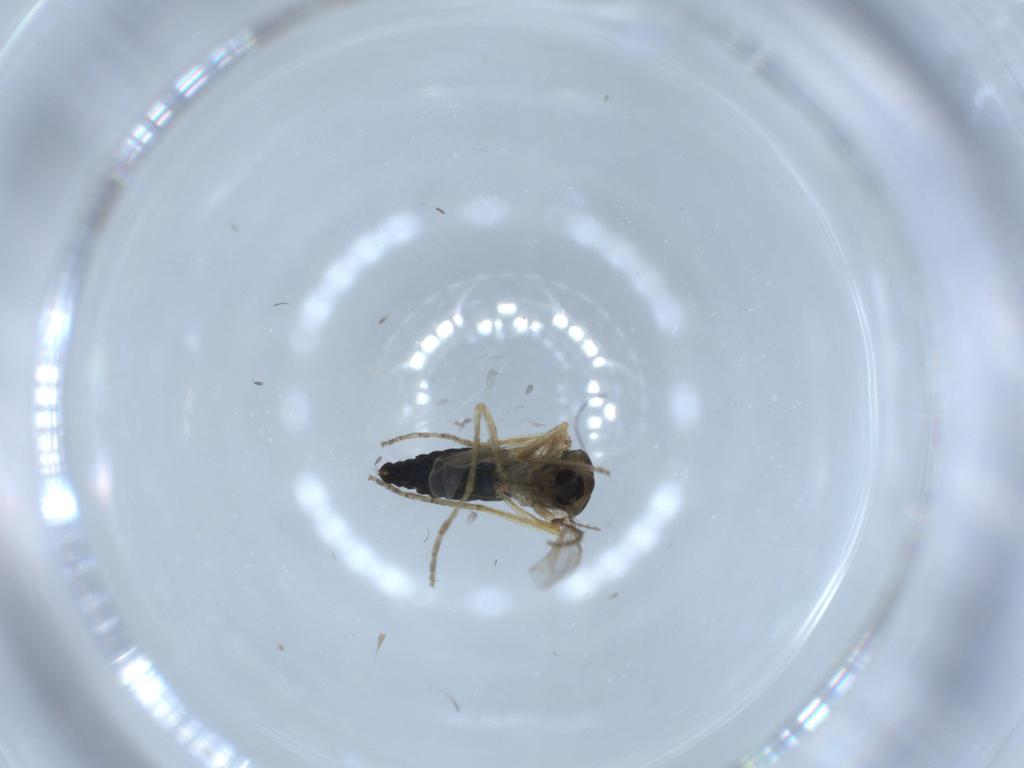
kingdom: Animalia
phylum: Arthropoda
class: Insecta
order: Diptera
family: Ceratopogonidae
